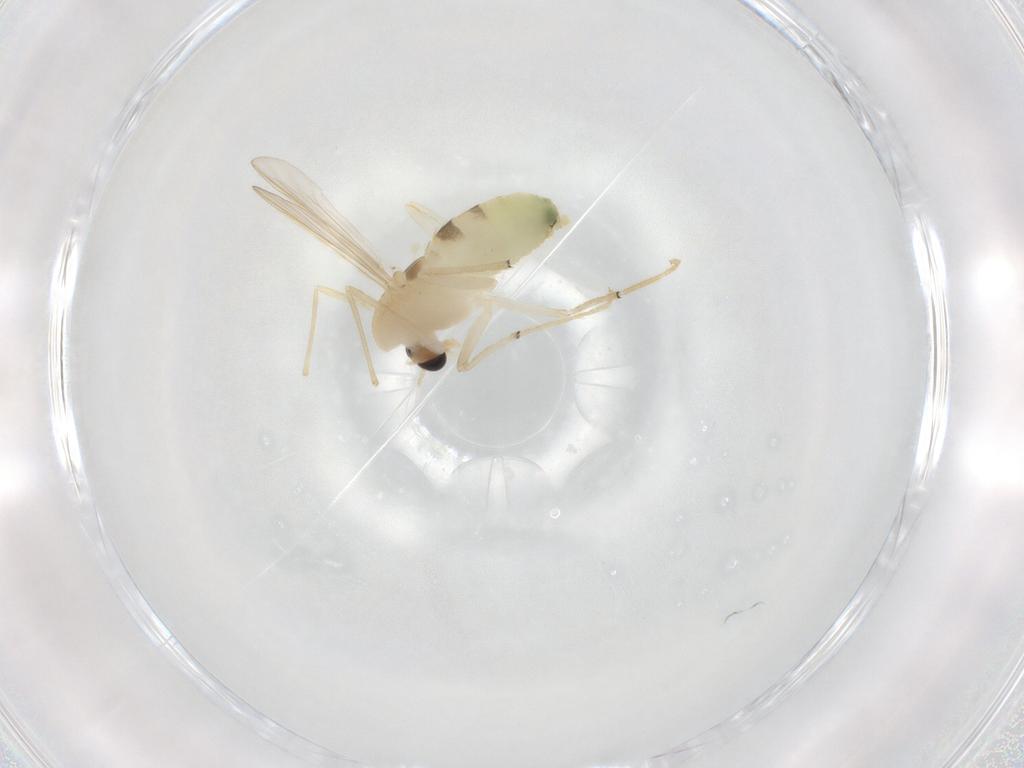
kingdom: Animalia
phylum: Arthropoda
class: Insecta
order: Diptera
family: Chironomidae
